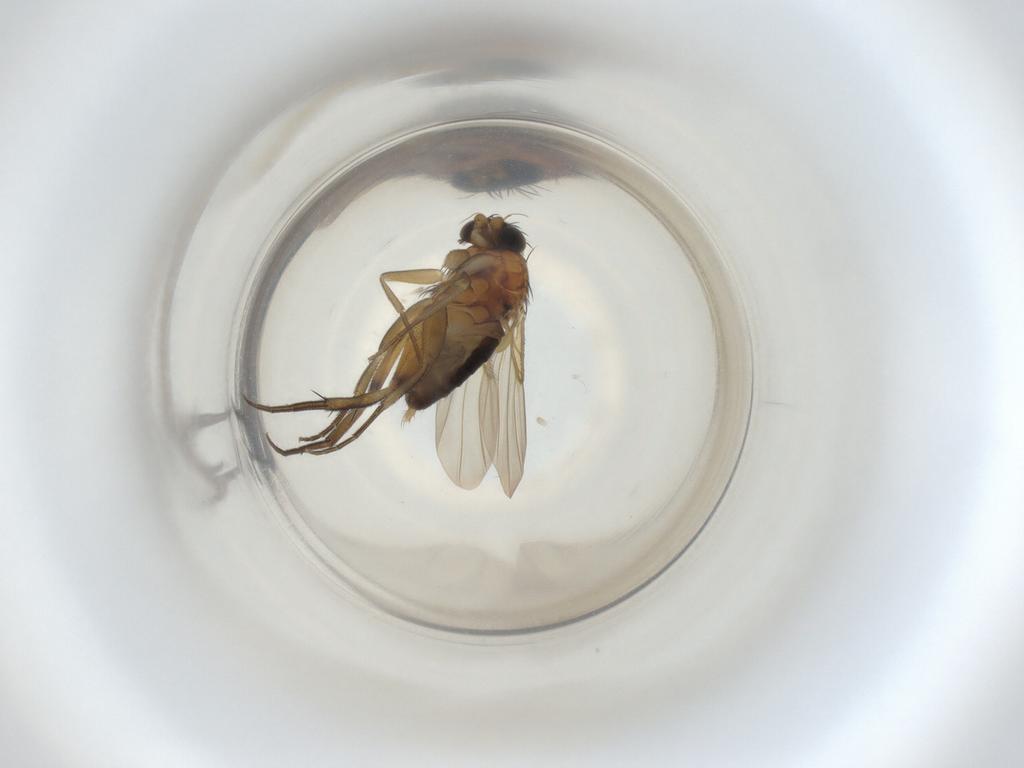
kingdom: Animalia
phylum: Arthropoda
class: Insecta
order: Diptera
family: Phoridae
